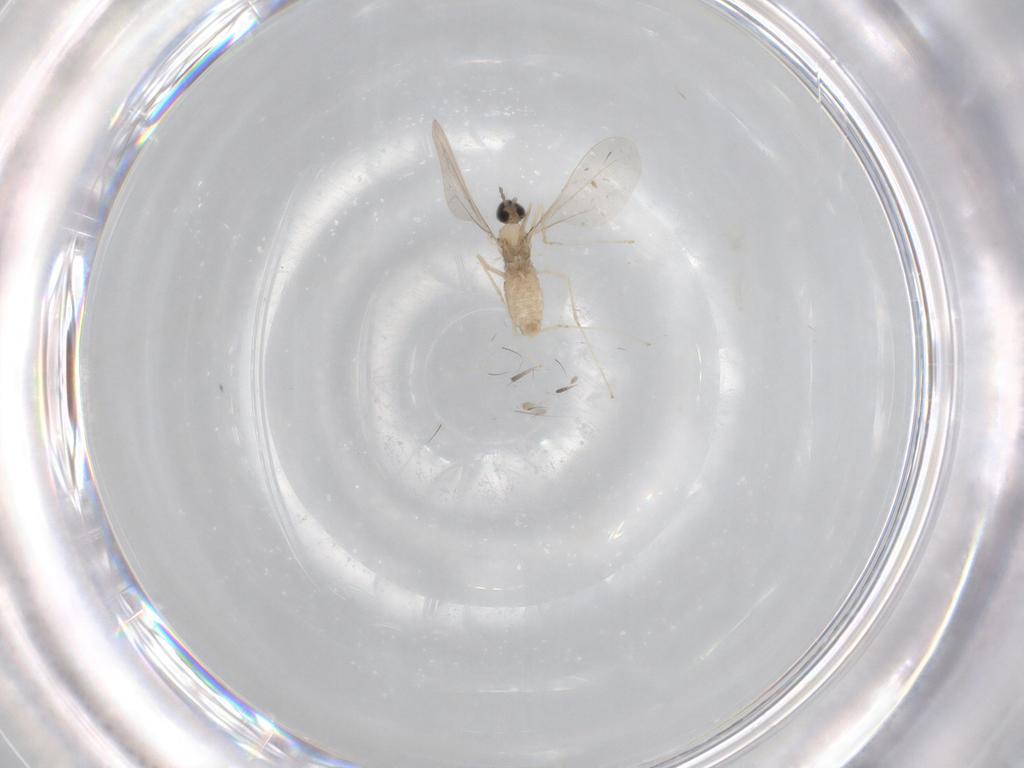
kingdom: Animalia
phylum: Arthropoda
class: Insecta
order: Diptera
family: Cecidomyiidae
